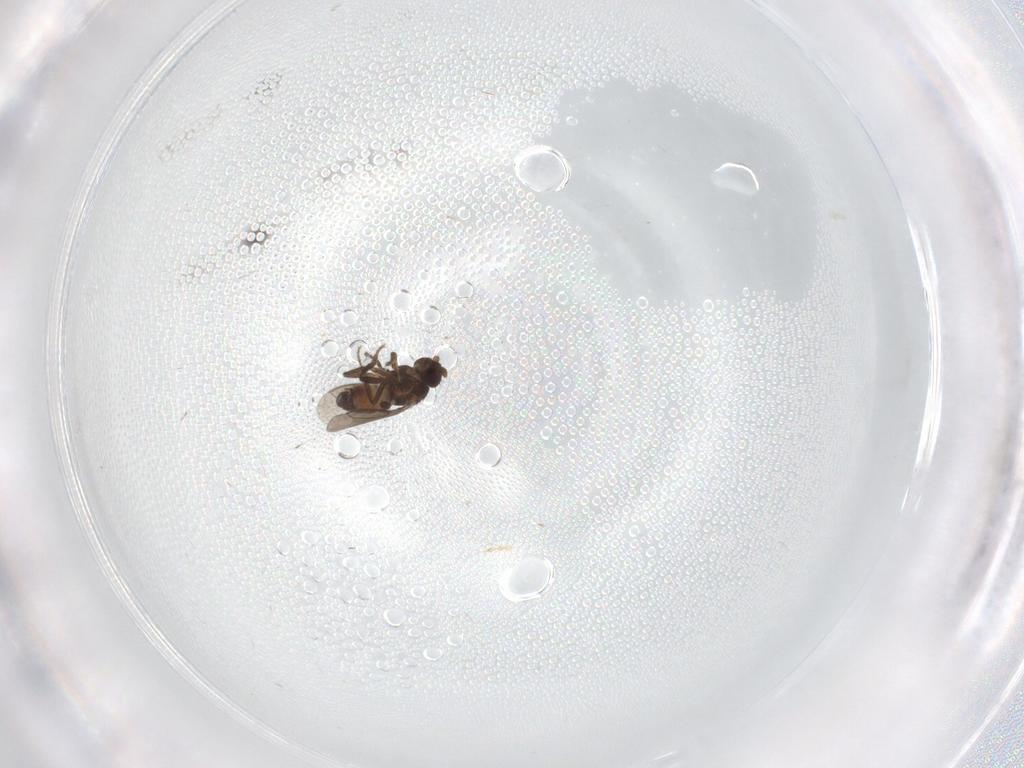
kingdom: Animalia
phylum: Arthropoda
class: Insecta
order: Diptera
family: Sphaeroceridae
